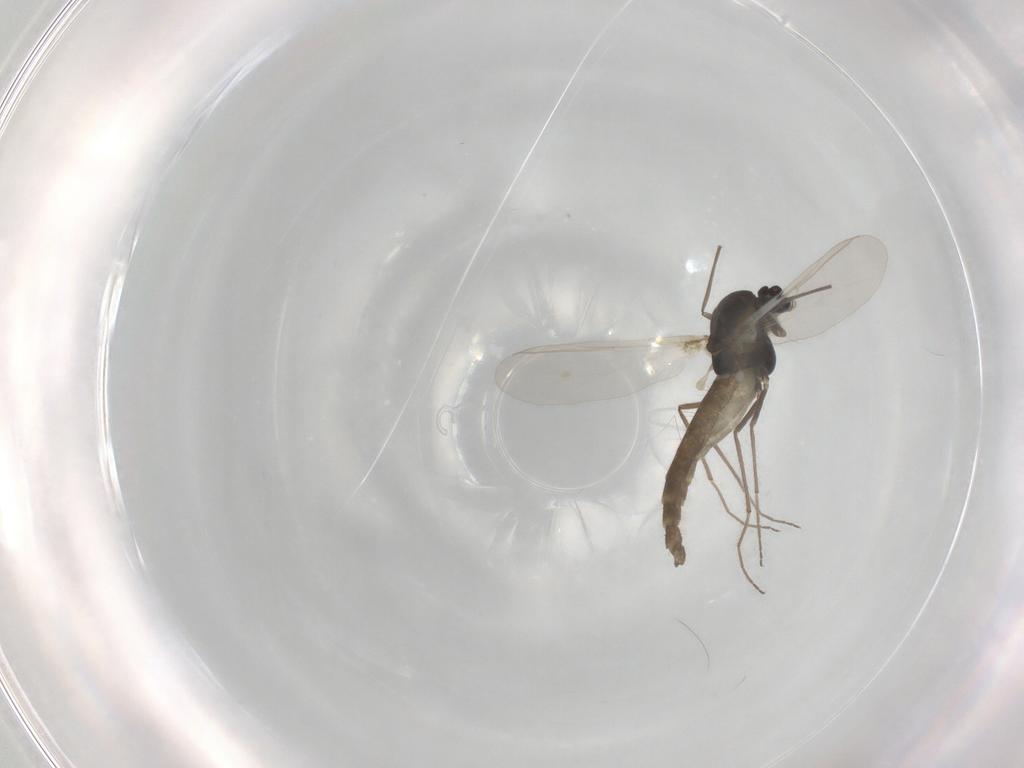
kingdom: Animalia
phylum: Arthropoda
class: Insecta
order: Diptera
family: Chironomidae
